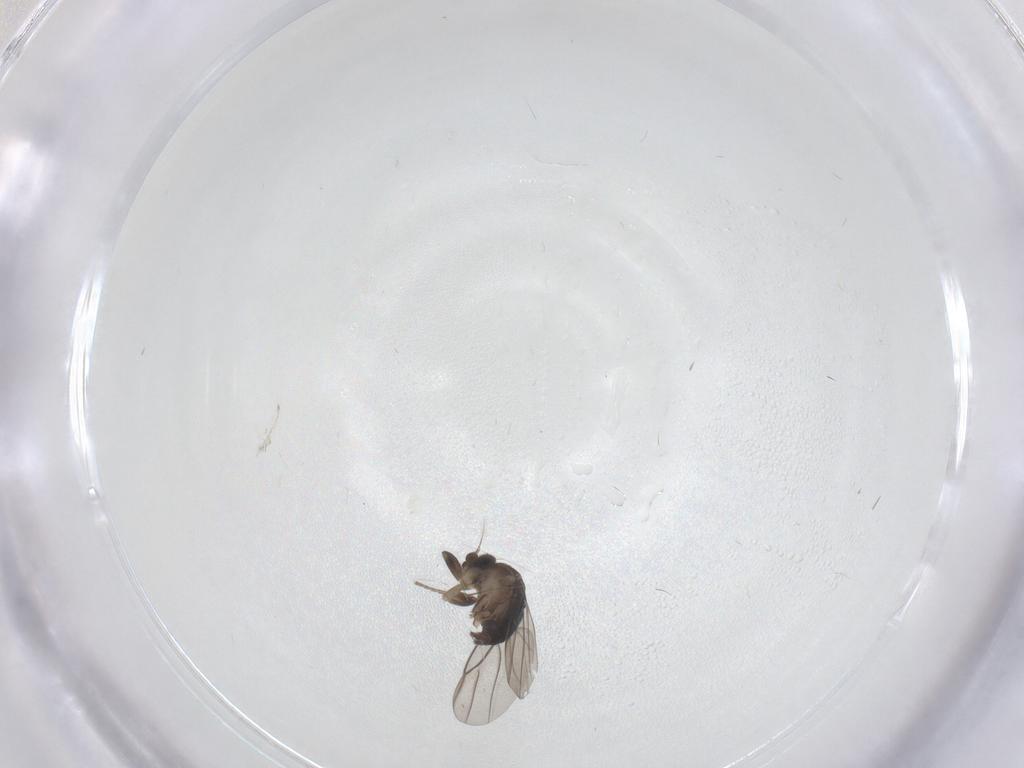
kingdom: Animalia
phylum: Arthropoda
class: Insecta
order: Diptera
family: Phoridae
